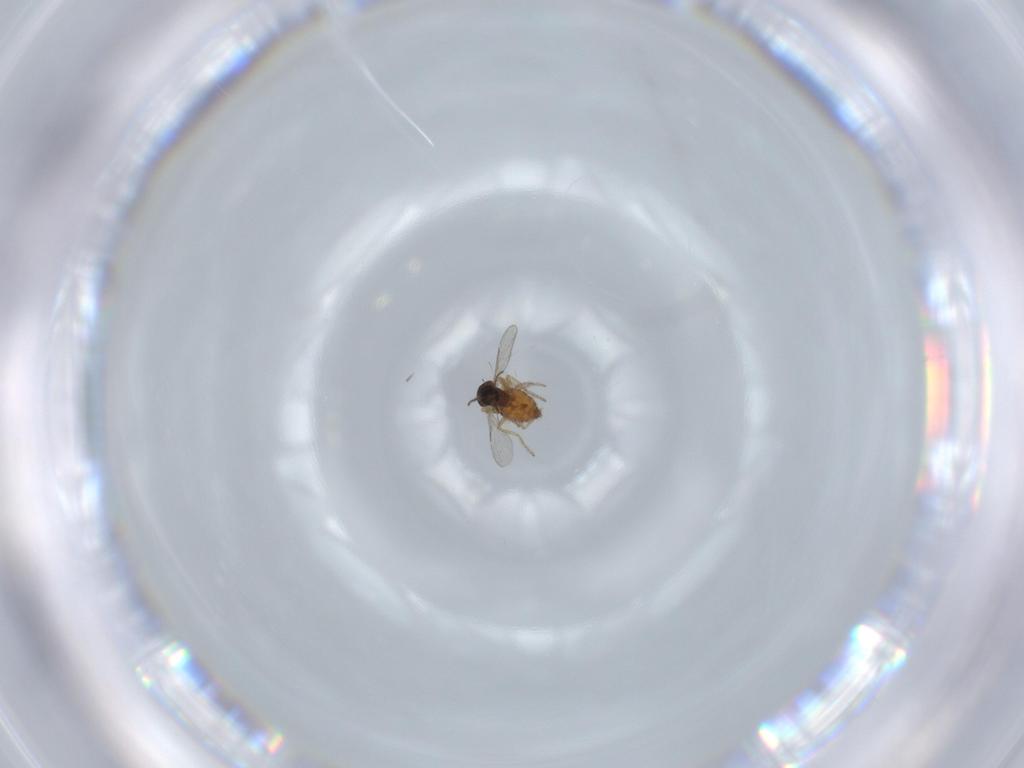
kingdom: Animalia
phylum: Arthropoda
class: Insecta
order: Diptera
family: Ceratopogonidae
